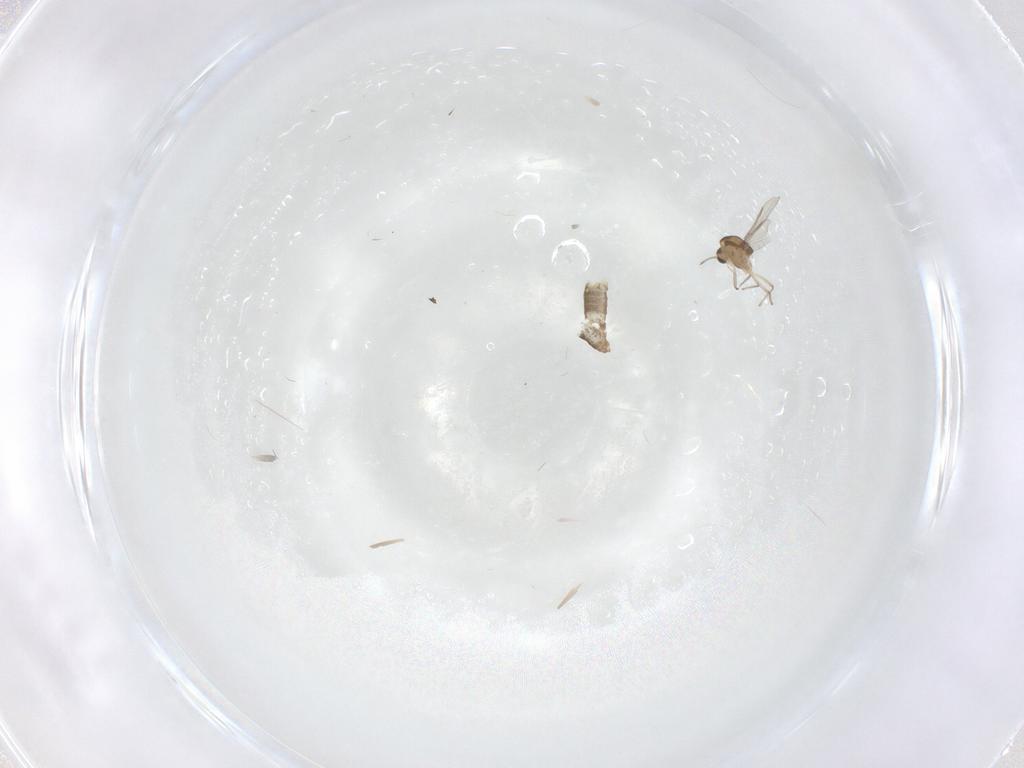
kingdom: Animalia
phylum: Arthropoda
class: Insecta
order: Diptera
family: Chironomidae
